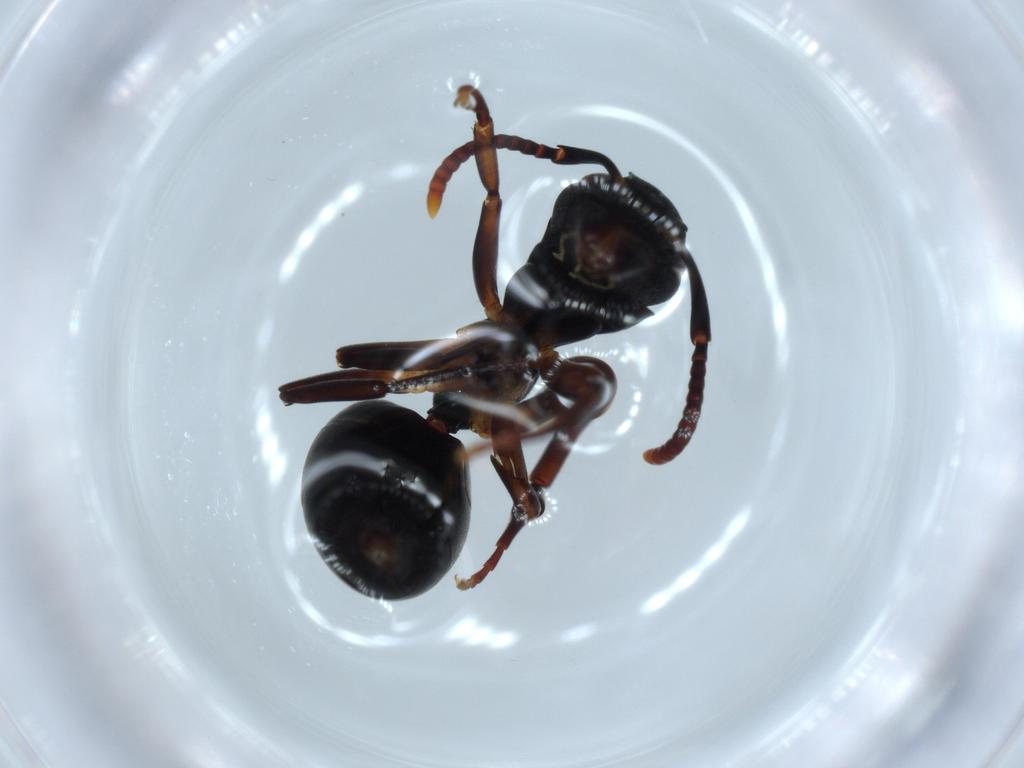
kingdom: Animalia
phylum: Arthropoda
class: Insecta
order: Hymenoptera
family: Formicidae
